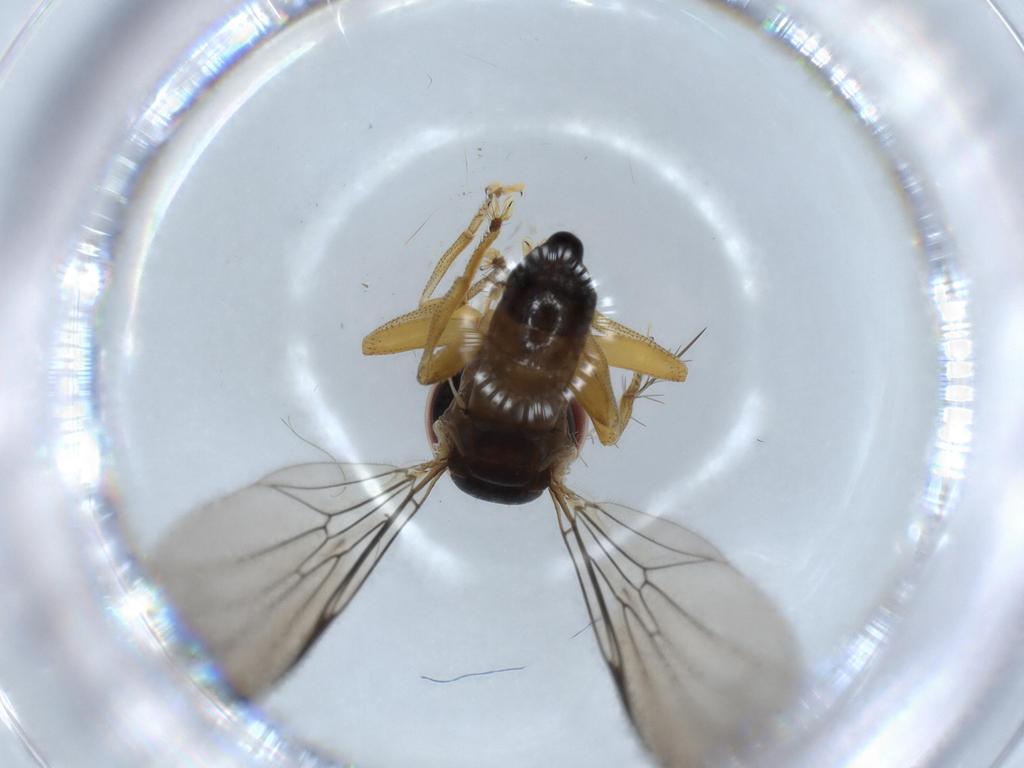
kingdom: Animalia
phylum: Arthropoda
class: Insecta
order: Diptera
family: Pipunculidae
